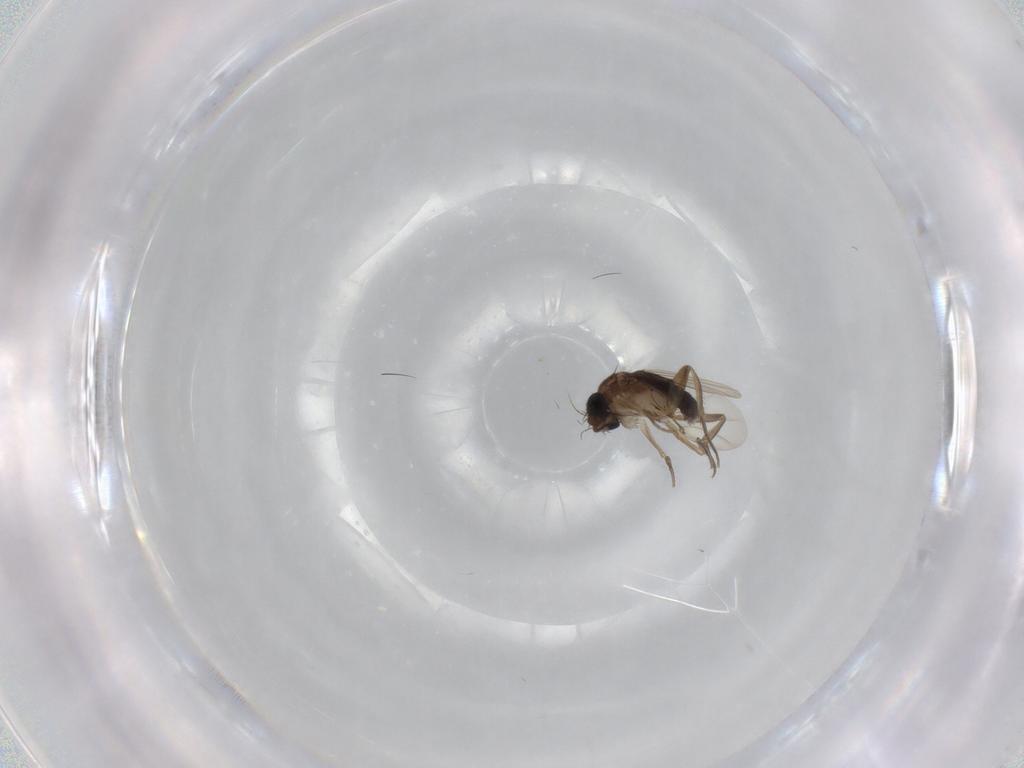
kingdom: Animalia
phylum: Arthropoda
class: Insecta
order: Diptera
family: Phoridae
